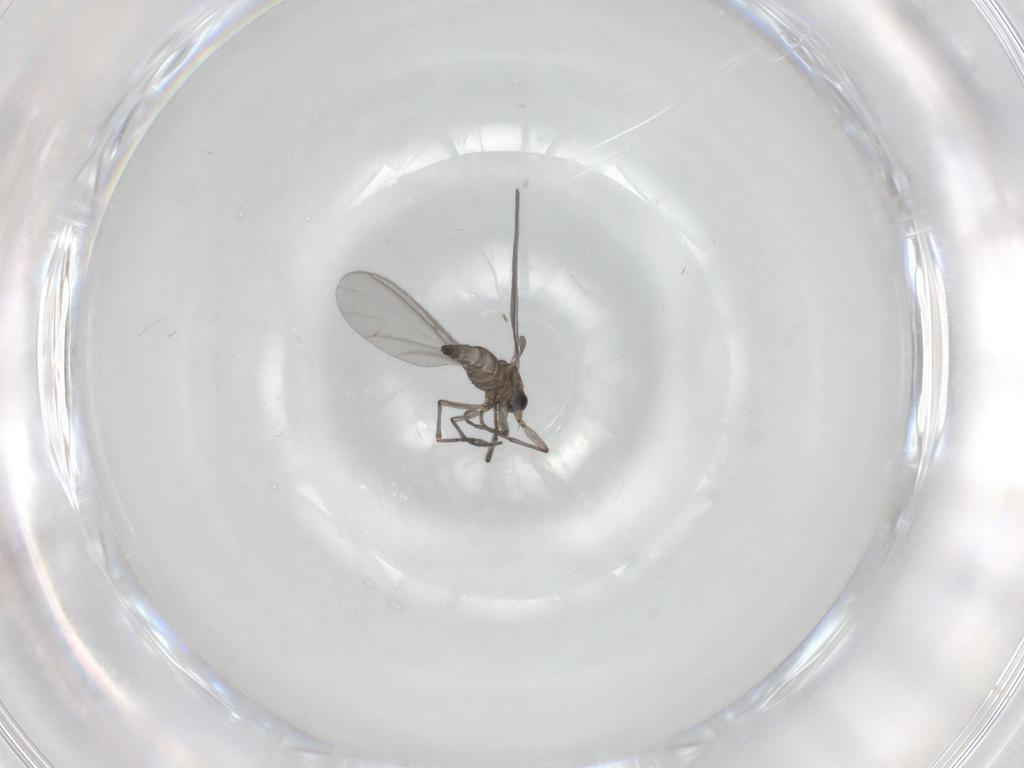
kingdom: Animalia
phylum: Arthropoda
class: Insecta
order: Diptera
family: Sciaridae
